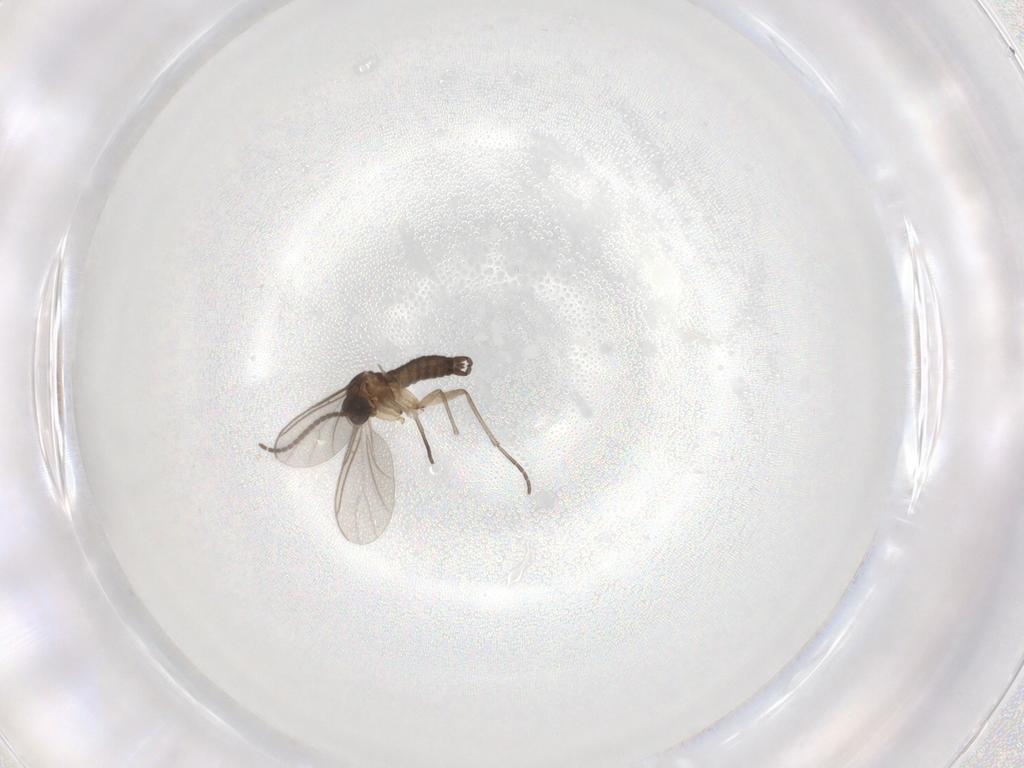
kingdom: Animalia
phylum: Arthropoda
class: Insecta
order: Diptera
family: Sciaridae
